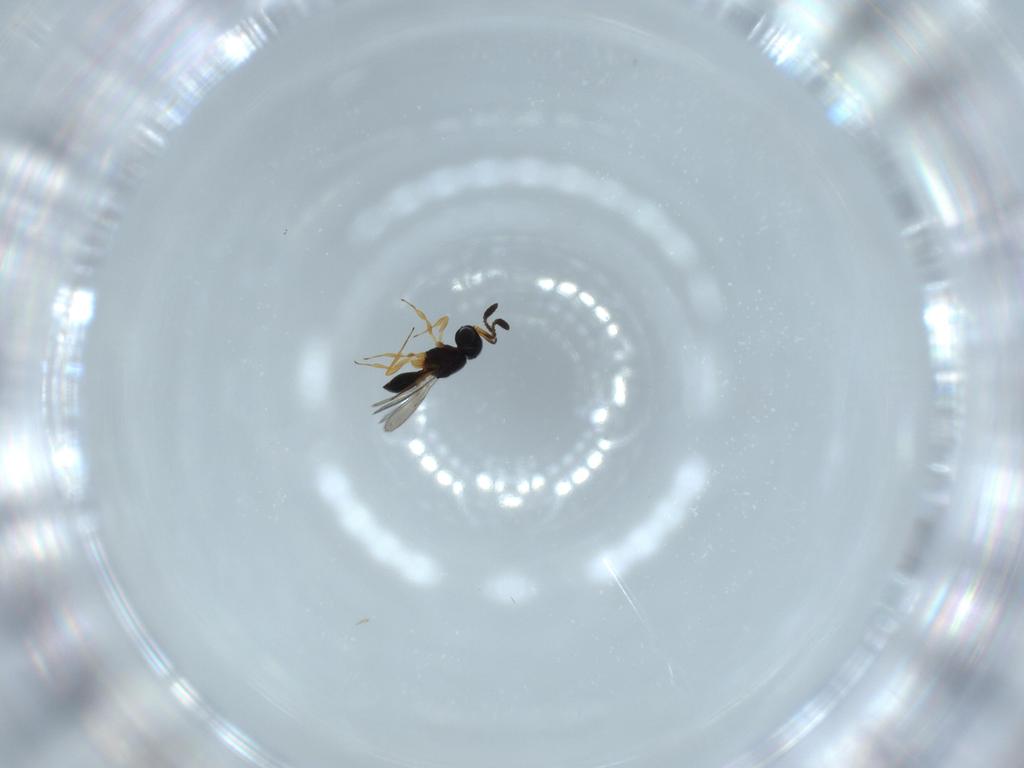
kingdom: Animalia
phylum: Arthropoda
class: Insecta
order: Hymenoptera
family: Scelionidae
